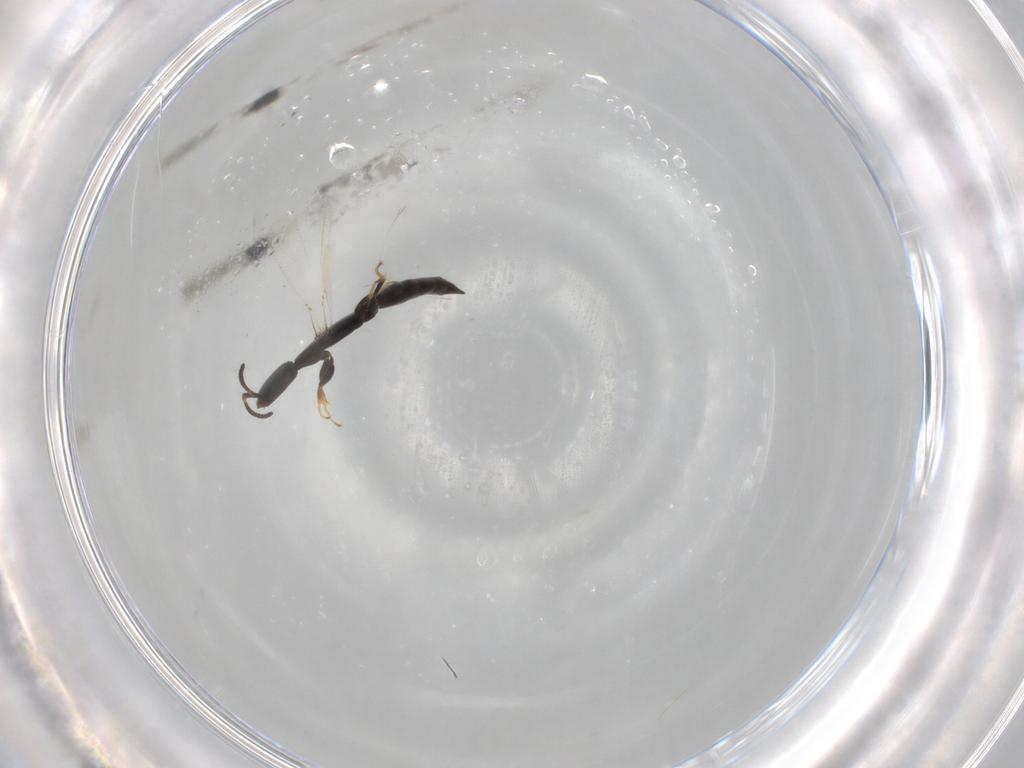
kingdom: Animalia
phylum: Arthropoda
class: Insecta
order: Hymenoptera
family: Bethylidae
